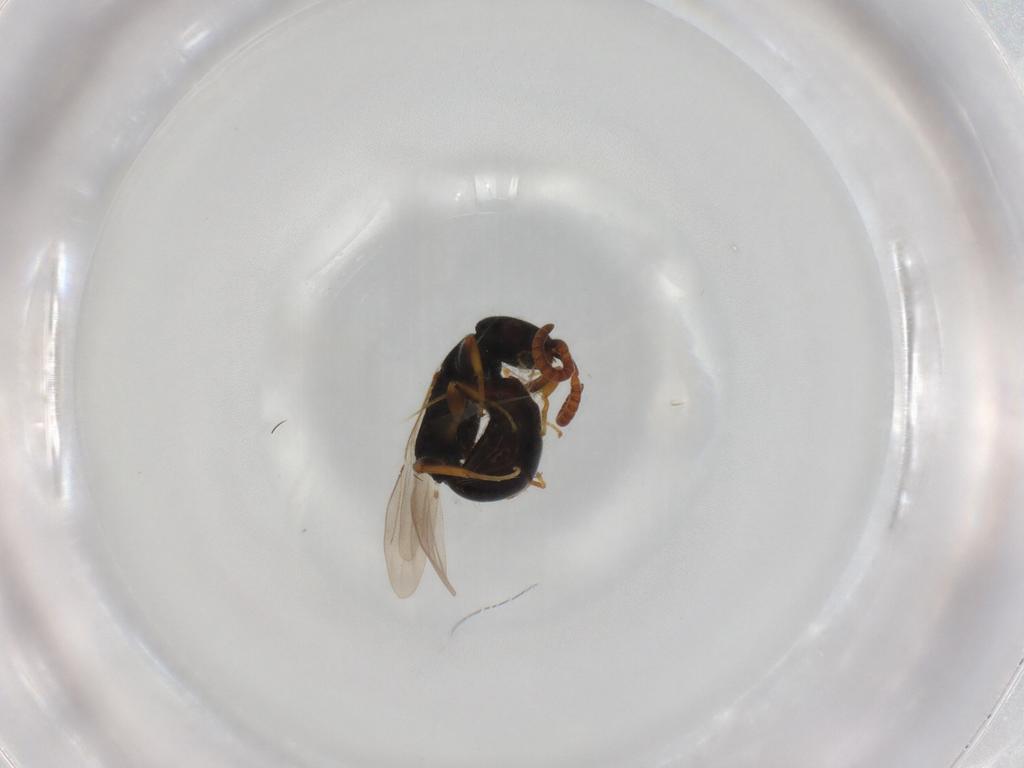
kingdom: Animalia
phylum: Arthropoda
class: Insecta
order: Hymenoptera
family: Bethylidae
